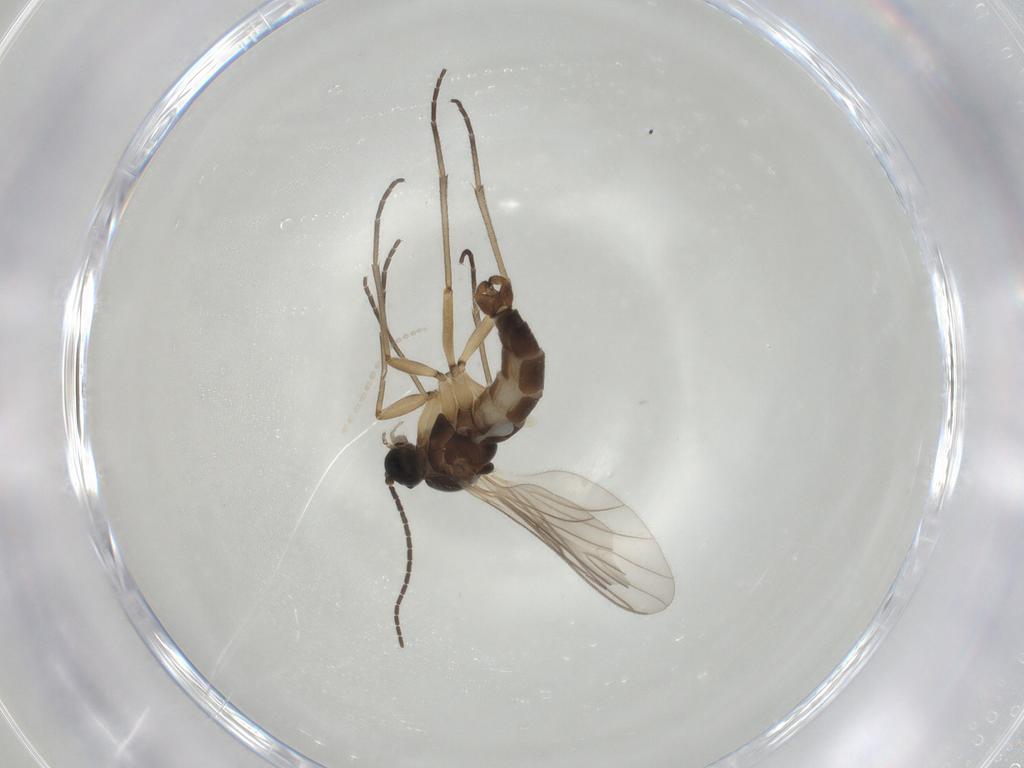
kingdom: Animalia
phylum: Arthropoda
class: Insecta
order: Diptera
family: Sciaridae
